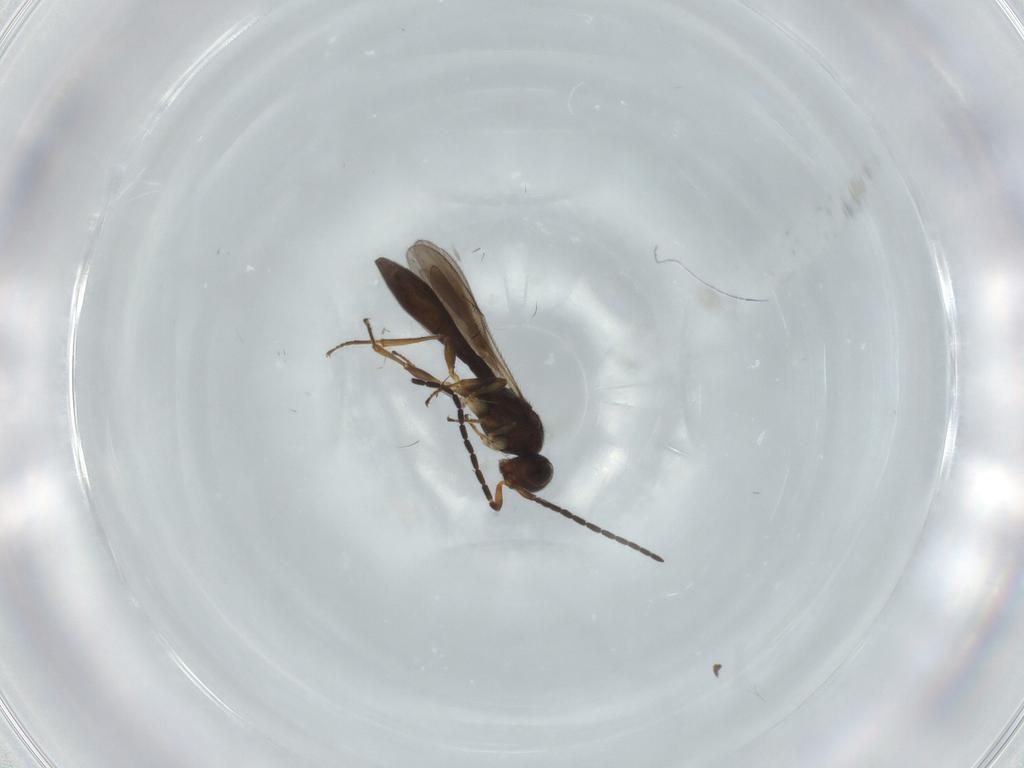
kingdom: Animalia
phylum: Arthropoda
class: Insecta
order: Hymenoptera
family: Scelionidae
